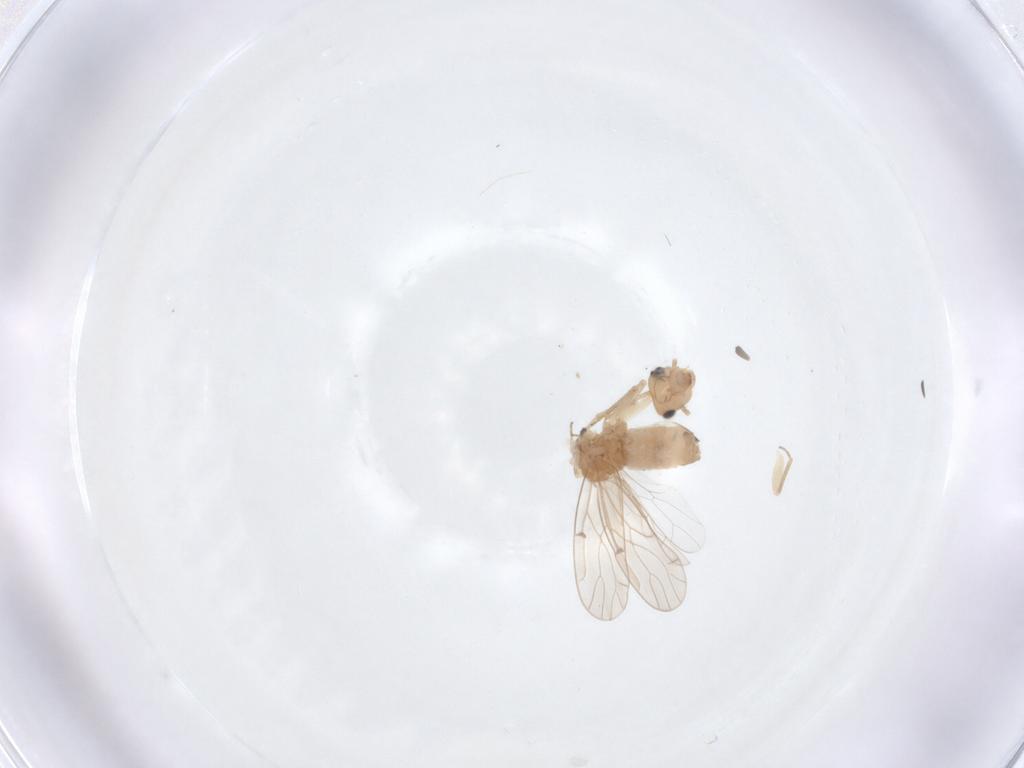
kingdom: Animalia
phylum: Arthropoda
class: Insecta
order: Psocodea
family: Ectopsocidae
